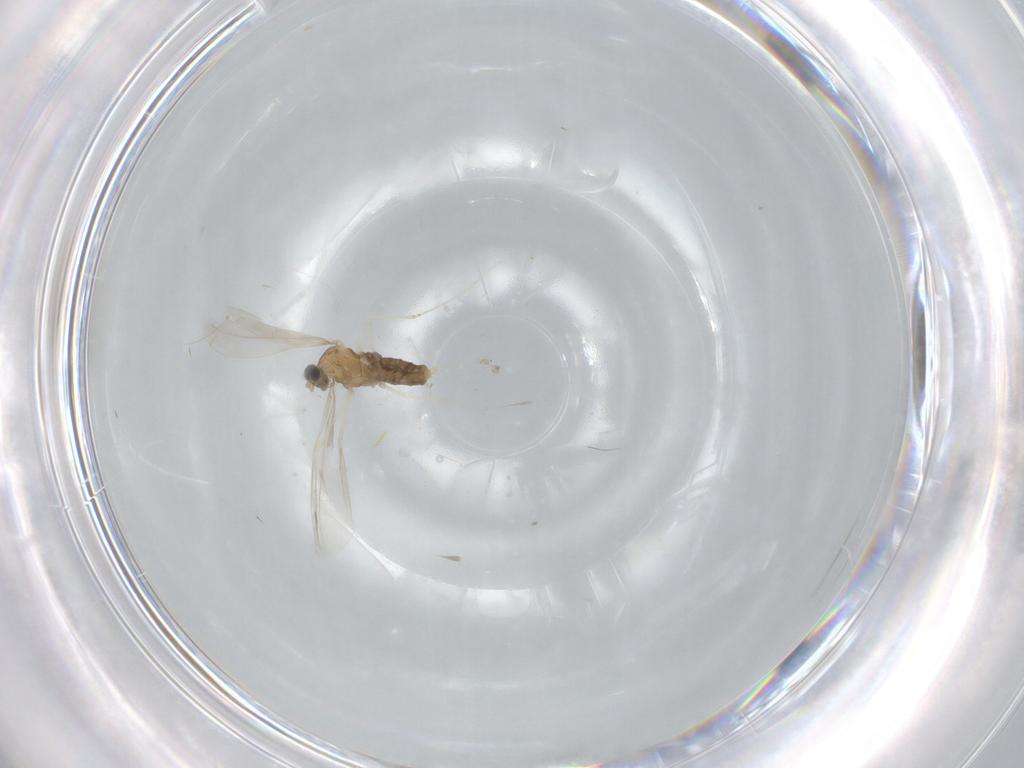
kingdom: Animalia
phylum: Arthropoda
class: Insecta
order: Diptera
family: Cecidomyiidae
